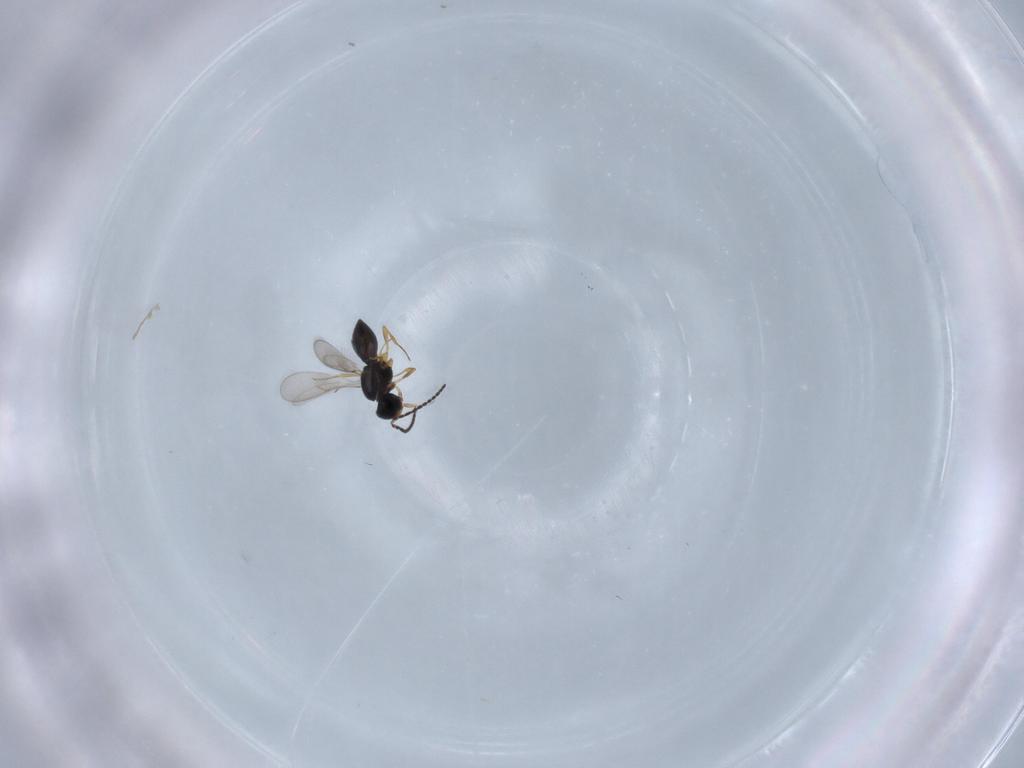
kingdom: Animalia
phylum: Arthropoda
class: Insecta
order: Hymenoptera
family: Scelionidae
